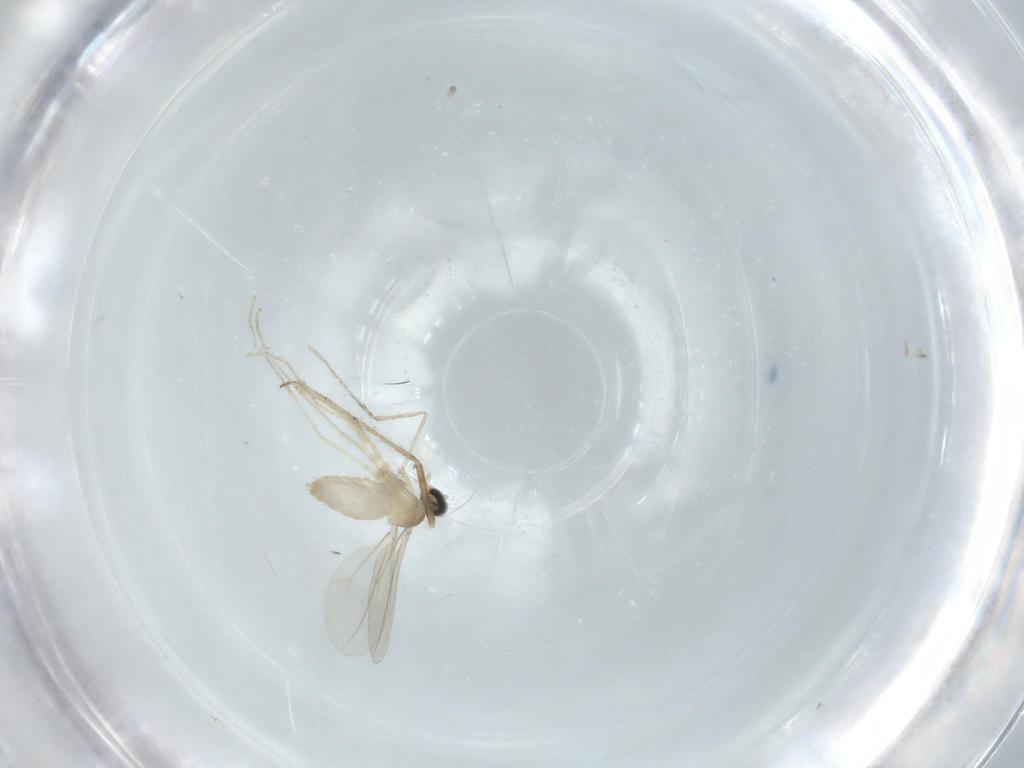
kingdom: Animalia
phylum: Arthropoda
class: Insecta
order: Diptera
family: Cecidomyiidae
